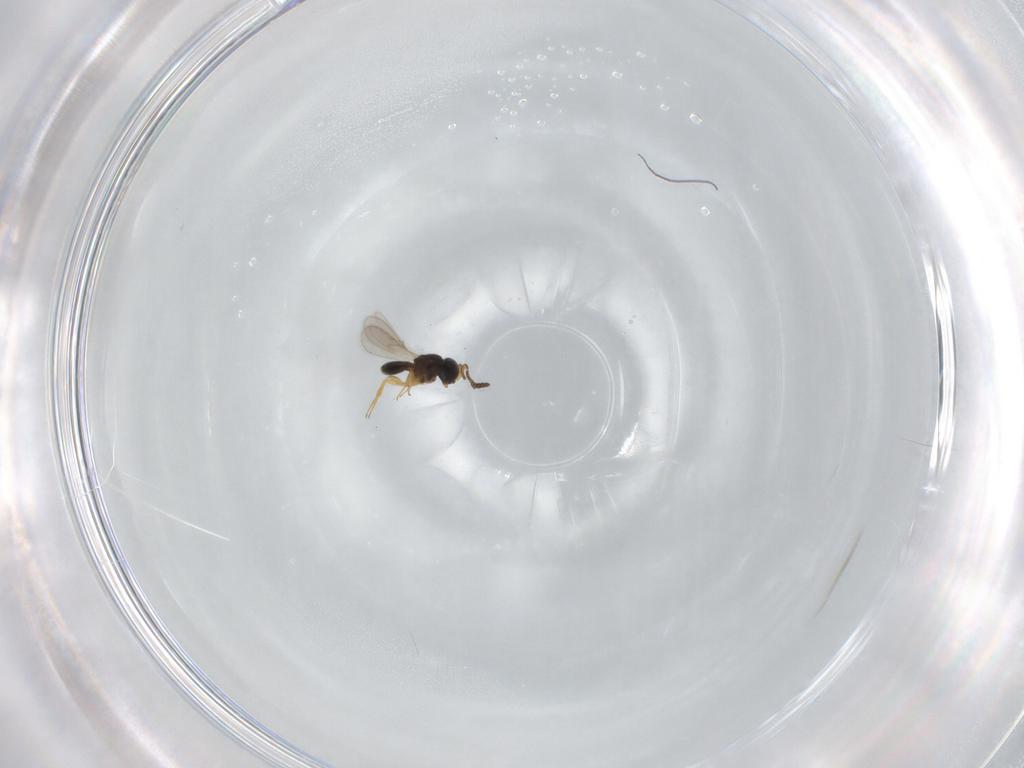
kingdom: Animalia
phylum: Arthropoda
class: Insecta
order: Hymenoptera
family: Scelionidae
